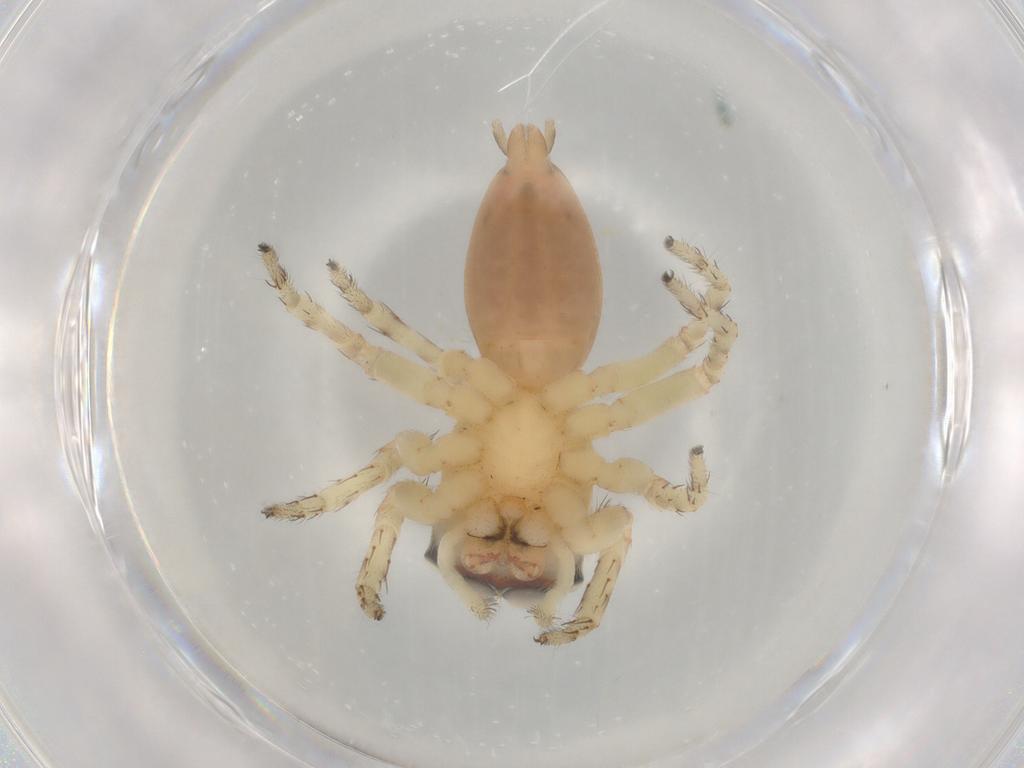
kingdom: Animalia
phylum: Arthropoda
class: Arachnida
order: Araneae
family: Salticidae
